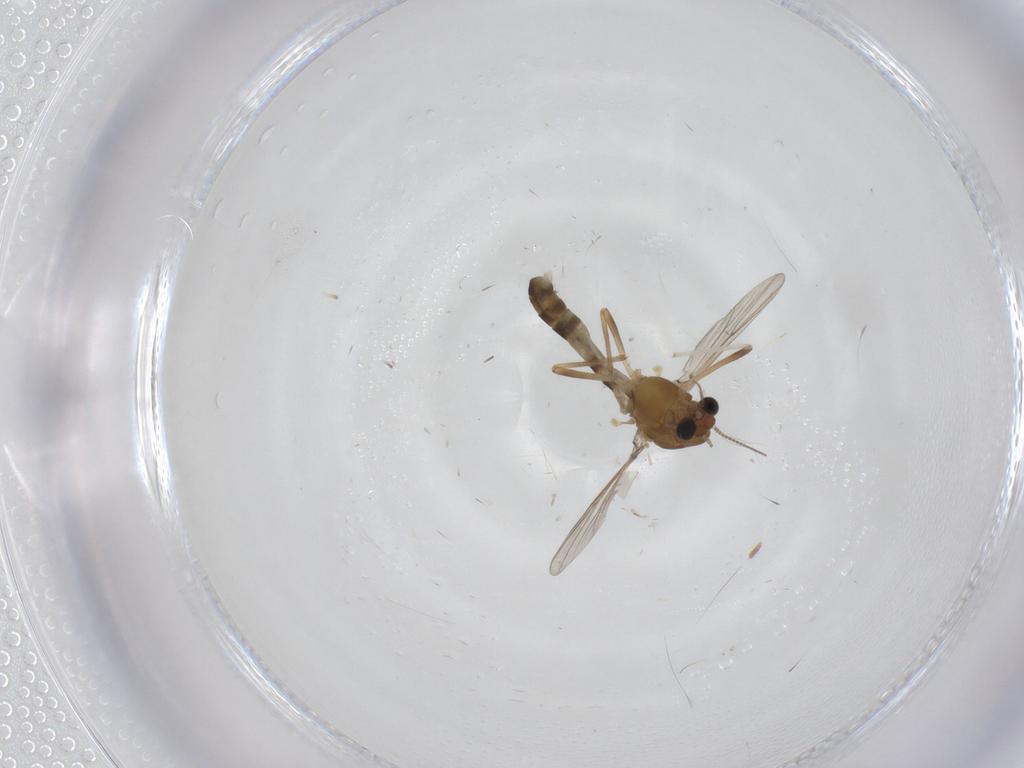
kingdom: Animalia
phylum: Arthropoda
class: Insecta
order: Diptera
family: Chironomidae
